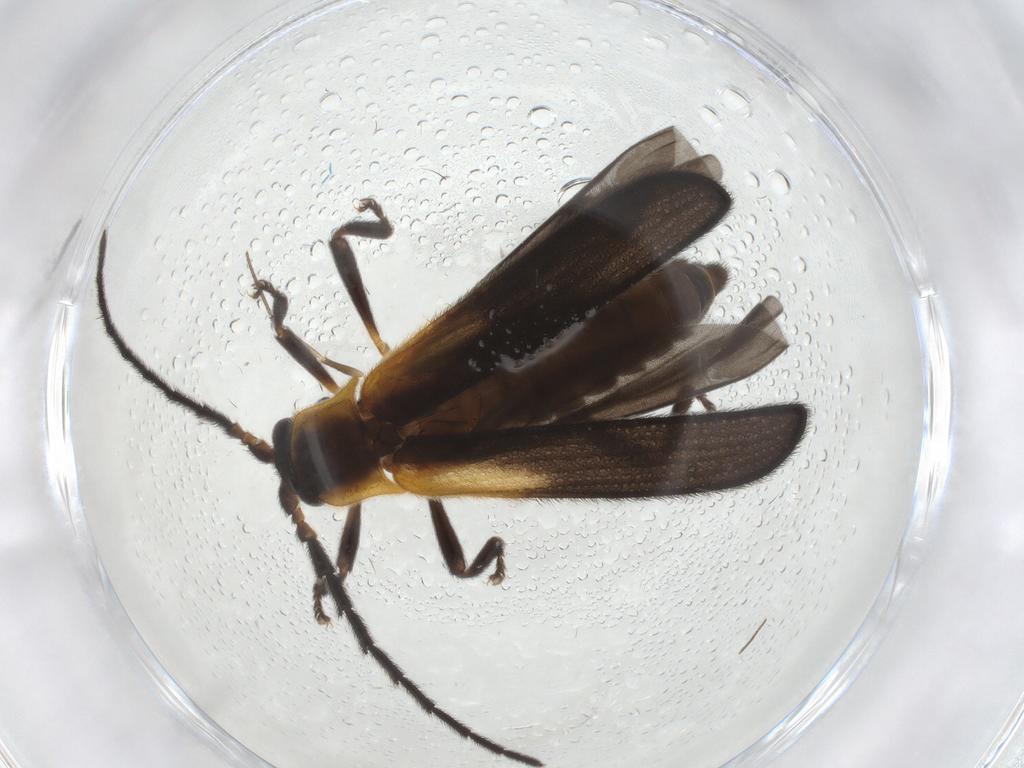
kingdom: Animalia
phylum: Arthropoda
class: Insecta
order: Coleoptera
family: Lycidae
